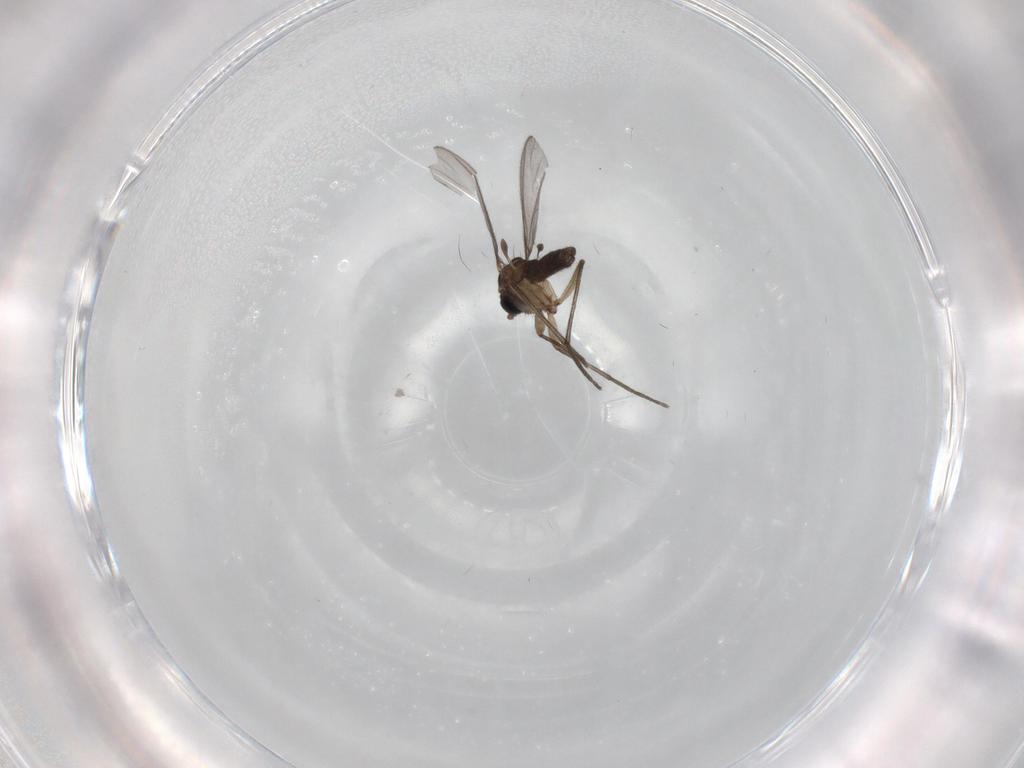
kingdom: Animalia
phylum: Arthropoda
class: Insecta
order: Diptera
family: Sciaridae
